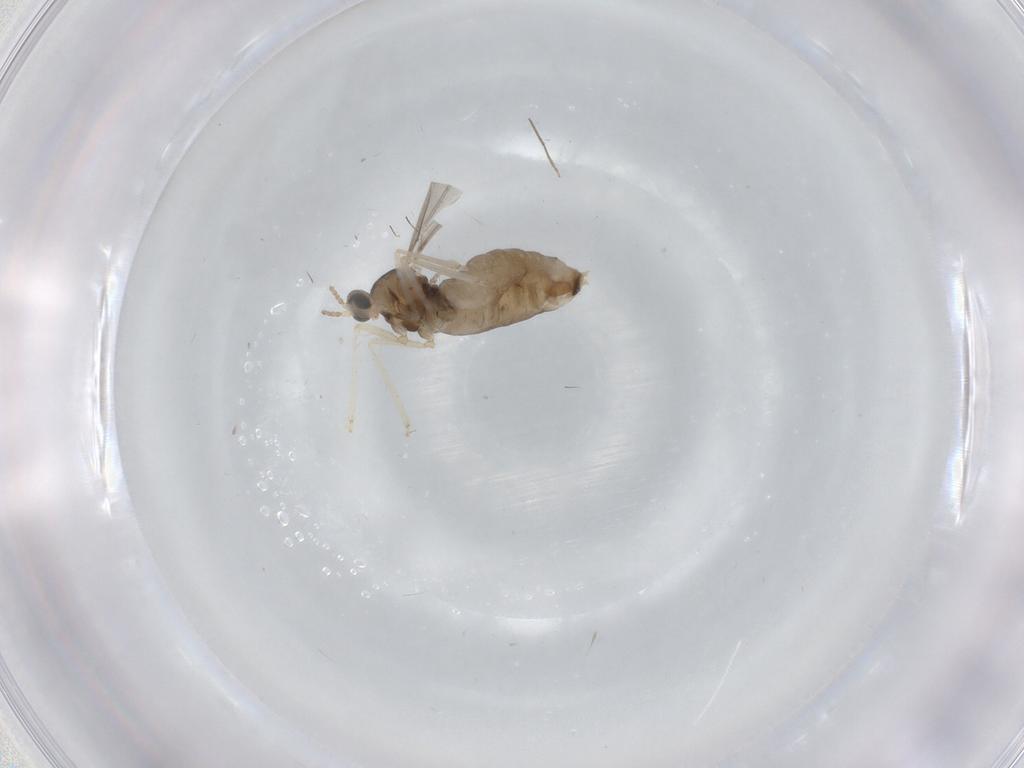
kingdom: Animalia
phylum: Arthropoda
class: Insecta
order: Diptera
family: Cecidomyiidae
